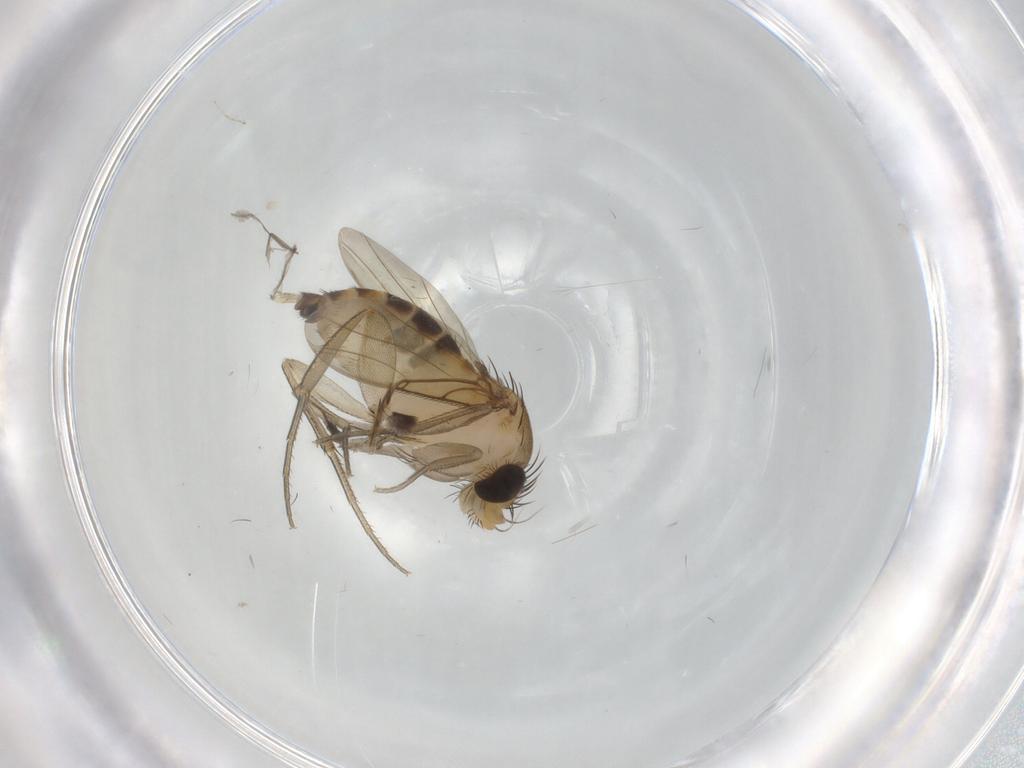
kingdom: Animalia
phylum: Arthropoda
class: Insecta
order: Diptera
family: Phoridae
